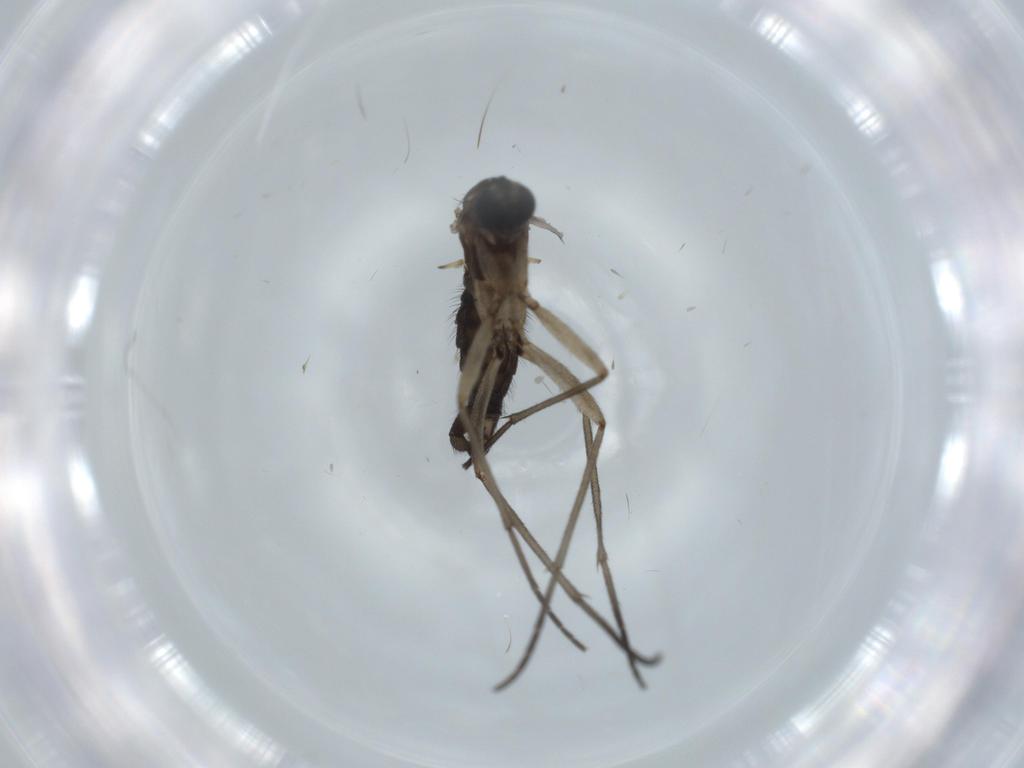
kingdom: Animalia
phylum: Arthropoda
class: Insecta
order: Diptera
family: Sciaridae
